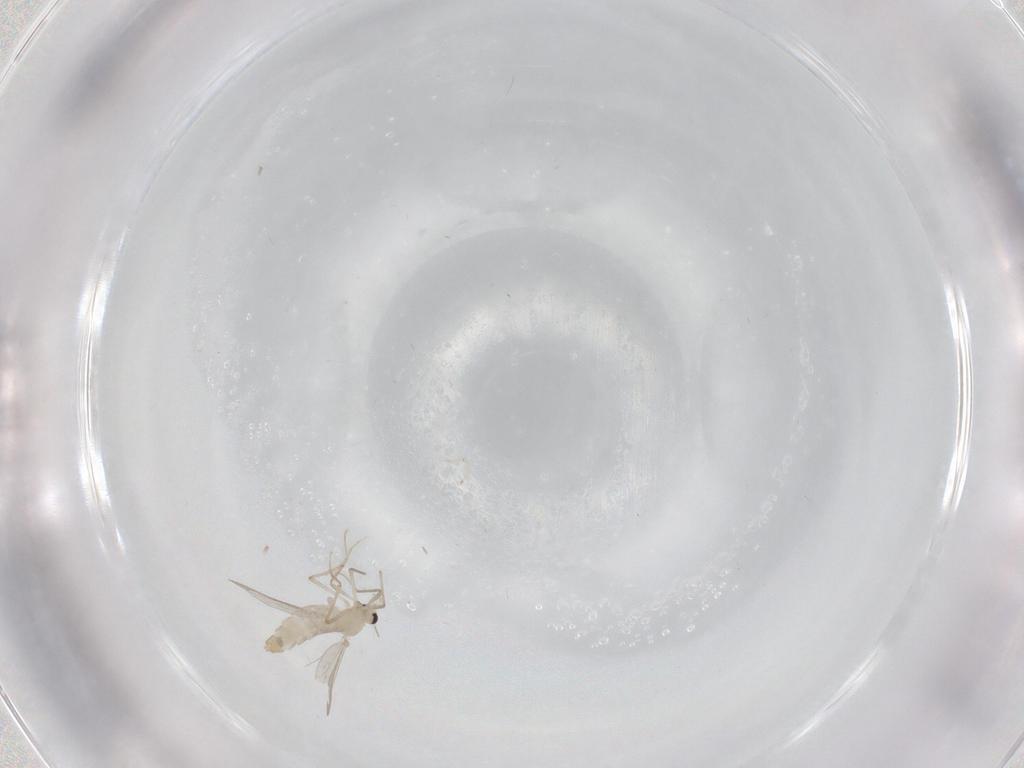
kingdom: Animalia
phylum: Arthropoda
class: Insecta
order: Diptera
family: Chironomidae
